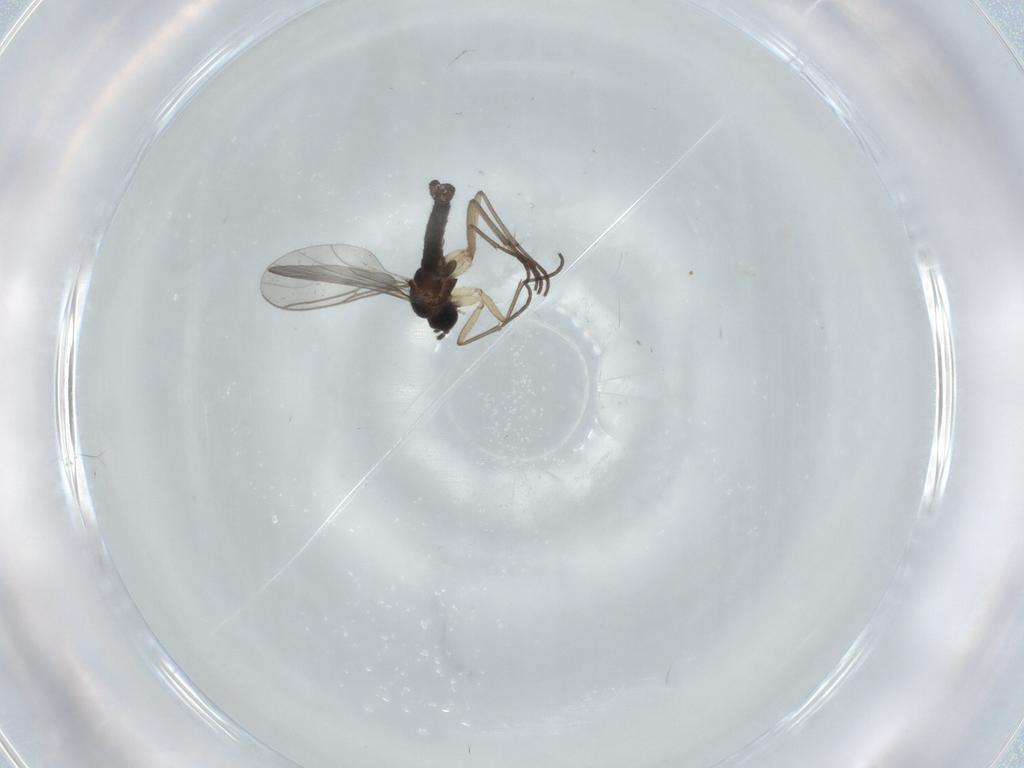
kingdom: Animalia
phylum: Arthropoda
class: Insecta
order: Diptera
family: Sciaridae
